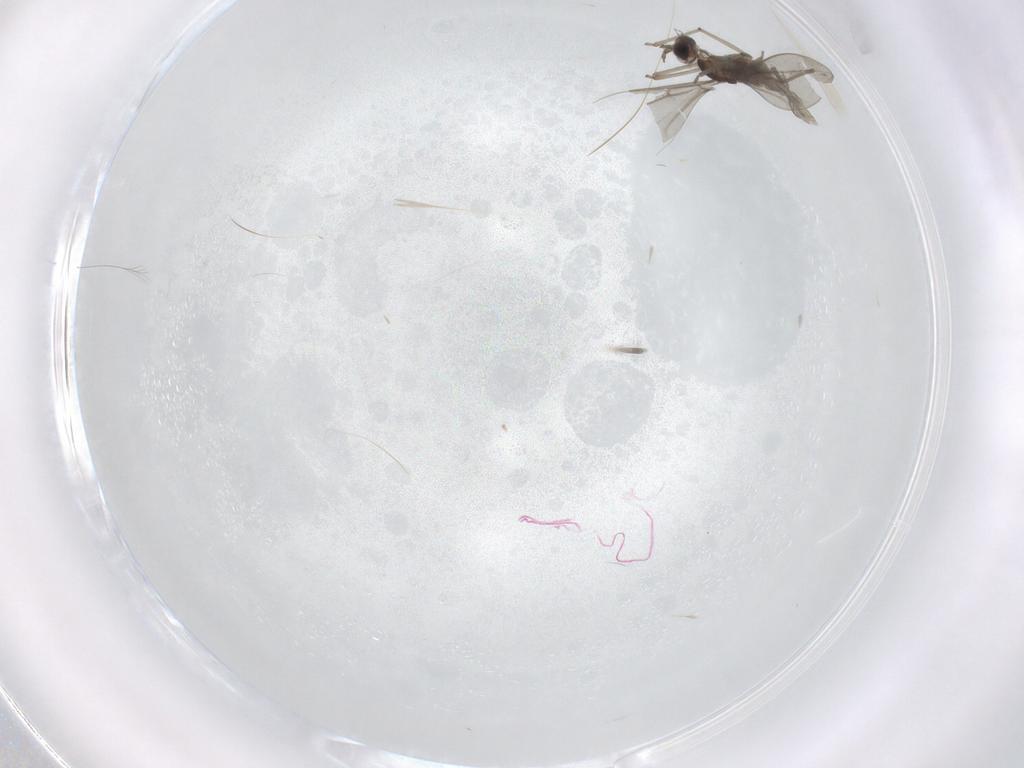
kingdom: Animalia
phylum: Arthropoda
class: Insecta
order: Diptera
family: Cecidomyiidae
